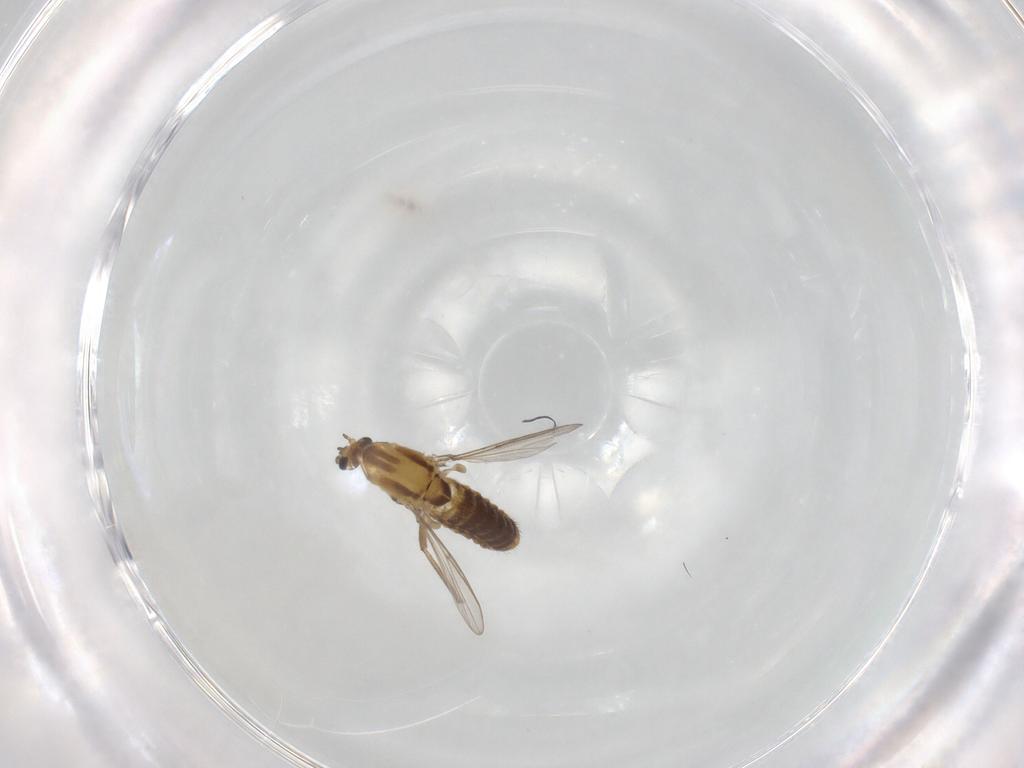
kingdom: Animalia
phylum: Arthropoda
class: Insecta
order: Diptera
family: Chironomidae
